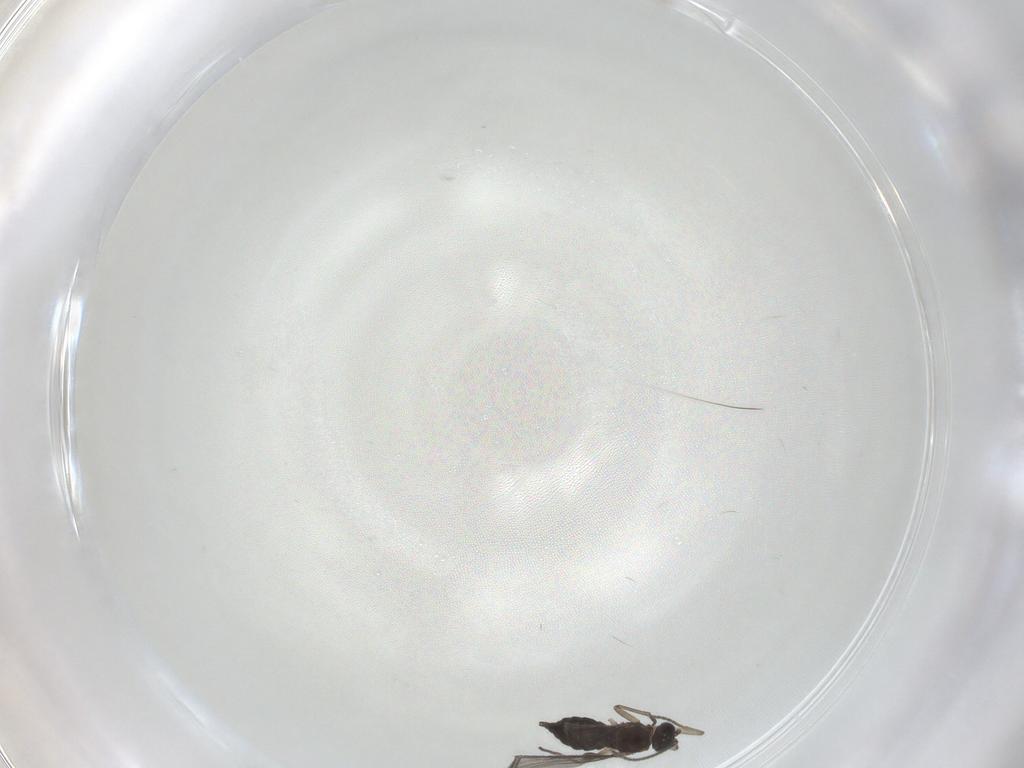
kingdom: Animalia
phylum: Arthropoda
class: Insecta
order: Diptera
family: Sciaridae
